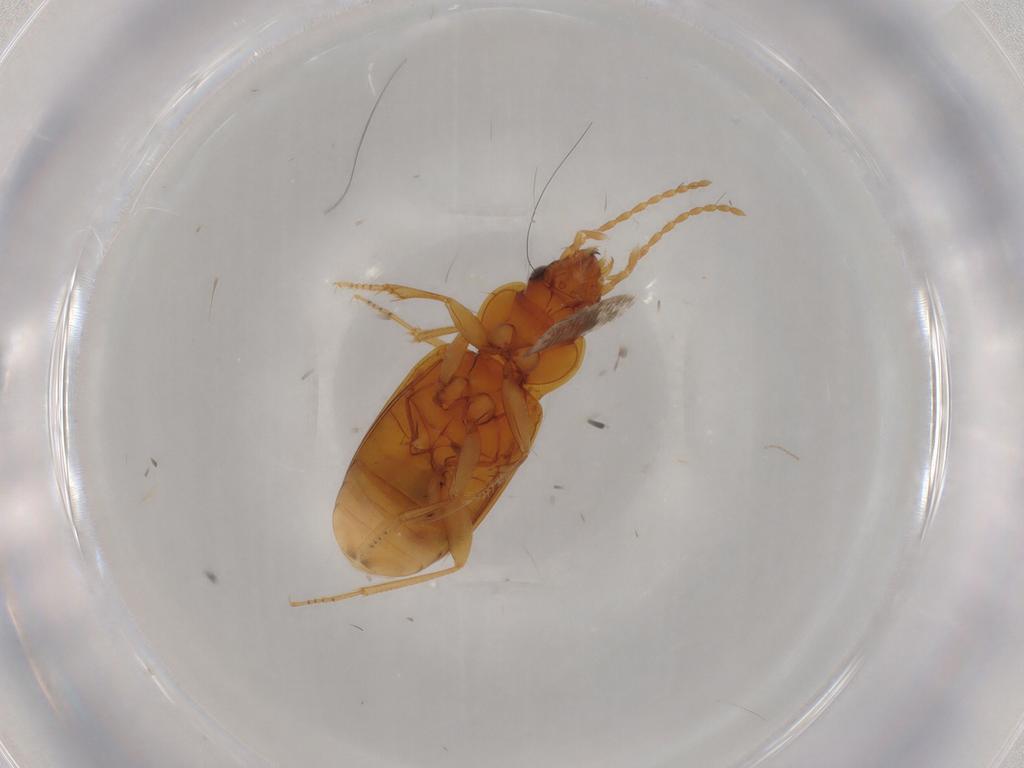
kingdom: Animalia
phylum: Arthropoda
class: Insecta
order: Coleoptera
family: Carabidae
